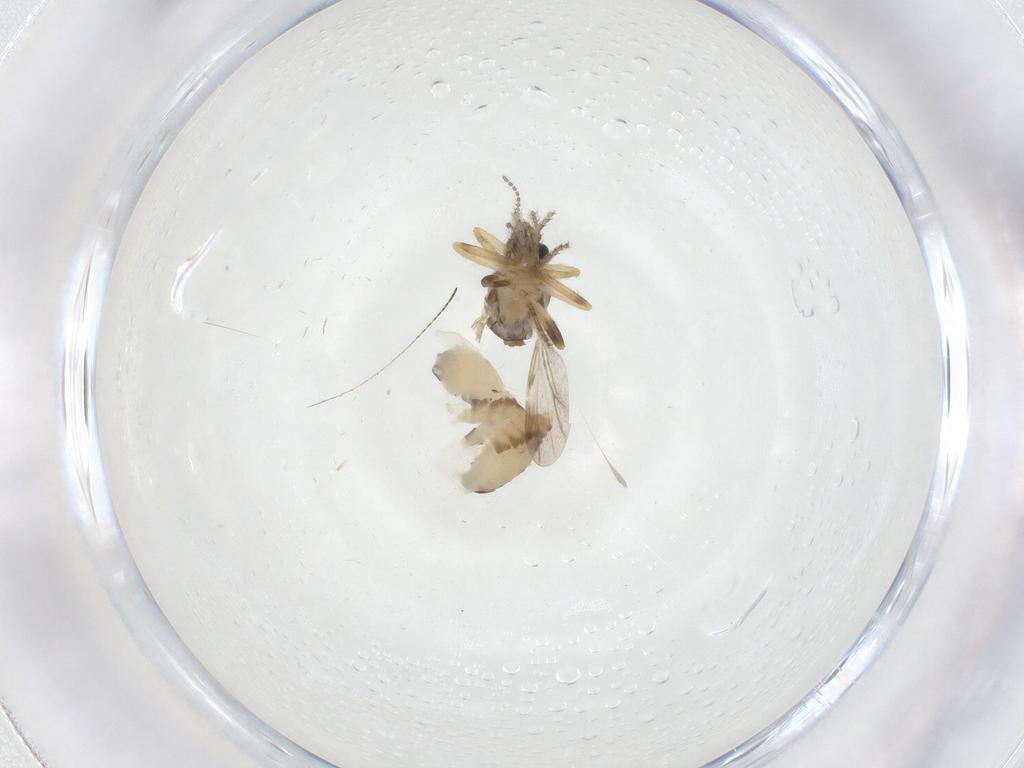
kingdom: Animalia
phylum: Arthropoda
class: Insecta
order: Diptera
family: Ceratopogonidae
